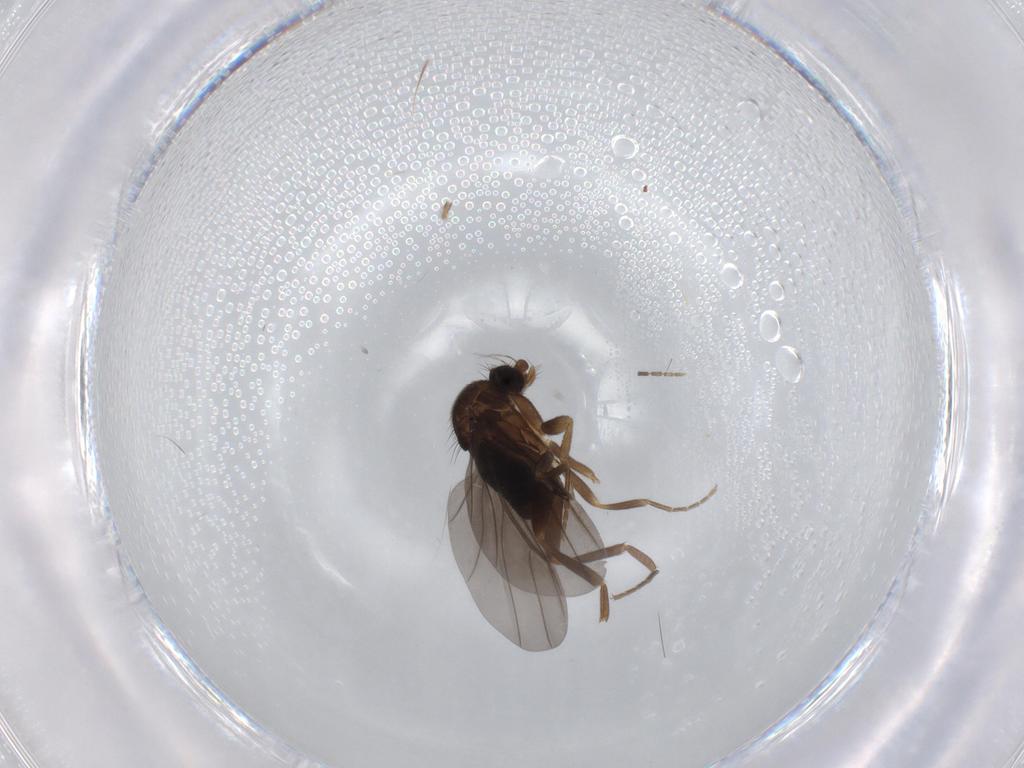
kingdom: Animalia
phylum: Arthropoda
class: Insecta
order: Diptera
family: Phoridae
